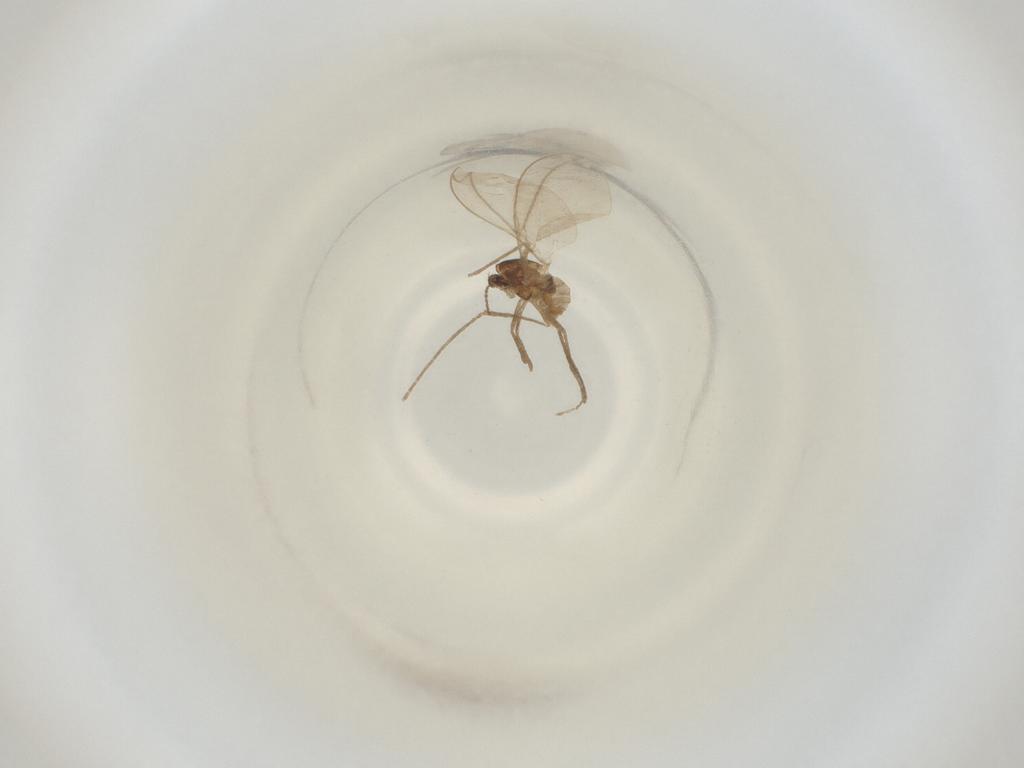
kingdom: Animalia
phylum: Arthropoda
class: Insecta
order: Diptera
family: Cecidomyiidae
